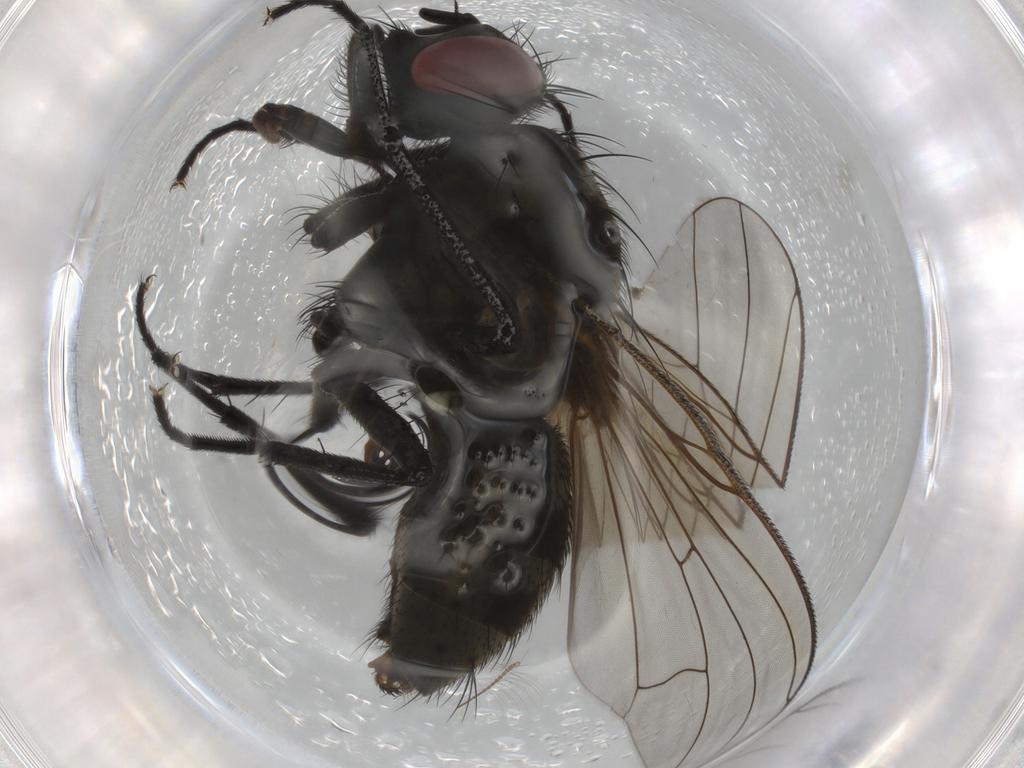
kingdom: Animalia
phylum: Arthropoda
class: Insecta
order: Diptera
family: Muscidae
